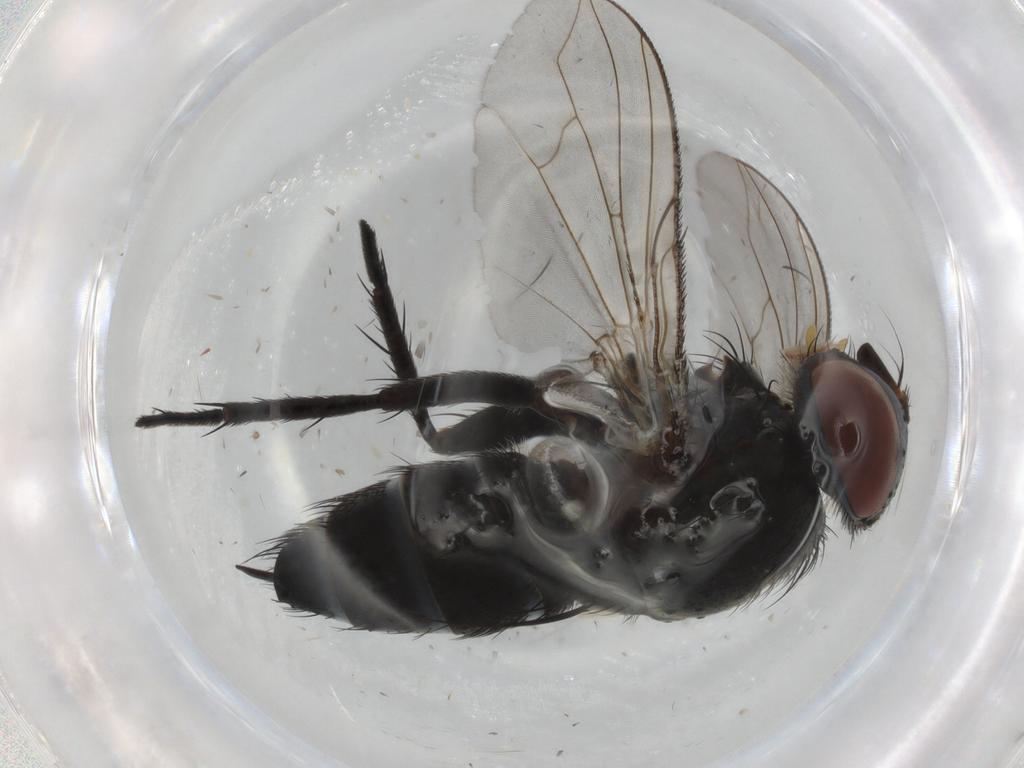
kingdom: Animalia
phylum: Arthropoda
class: Insecta
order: Diptera
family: Tachinidae
